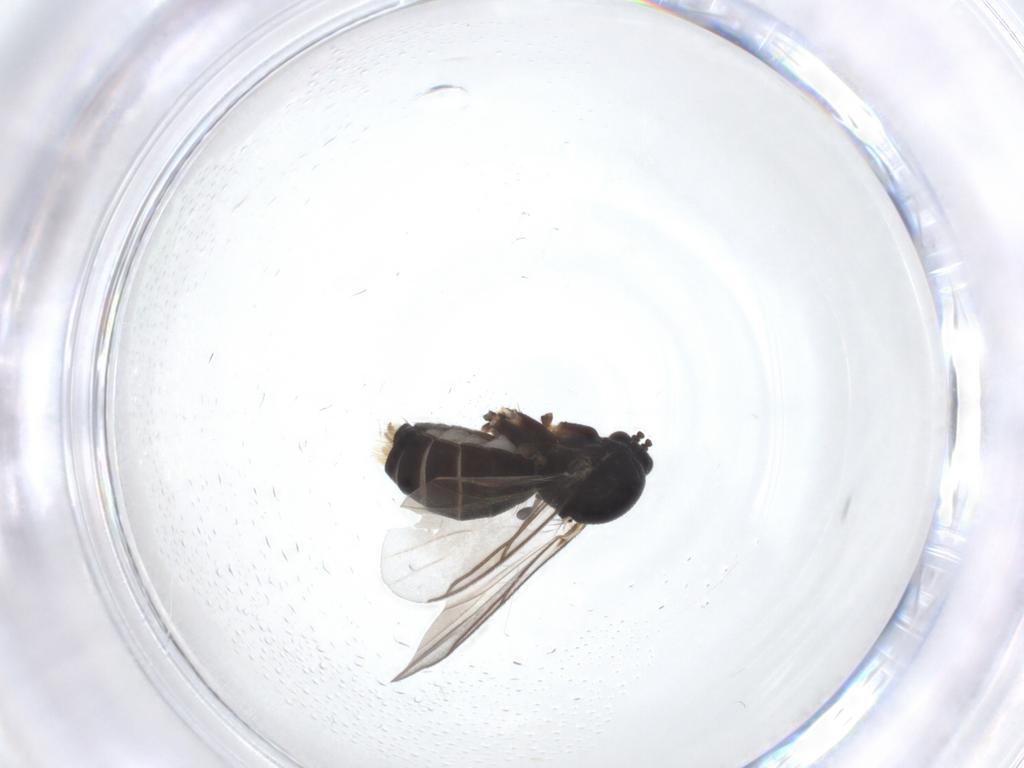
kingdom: Animalia
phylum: Arthropoda
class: Insecta
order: Diptera
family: Mycetophilidae
